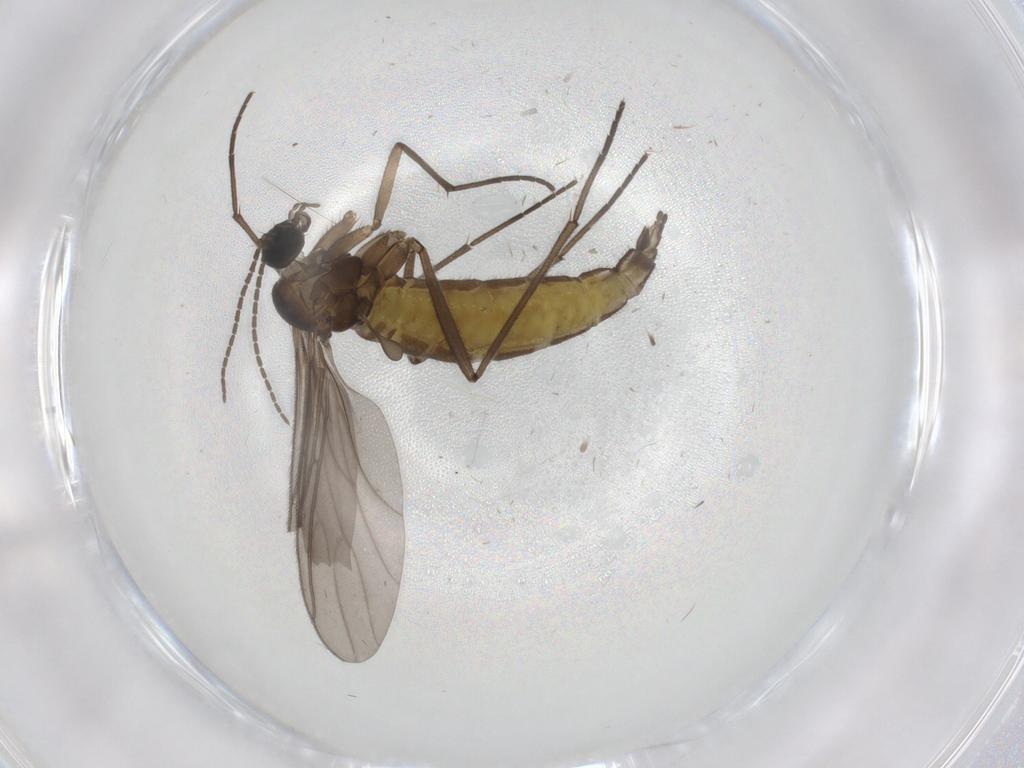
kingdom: Animalia
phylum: Arthropoda
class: Insecta
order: Diptera
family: Sciaridae
